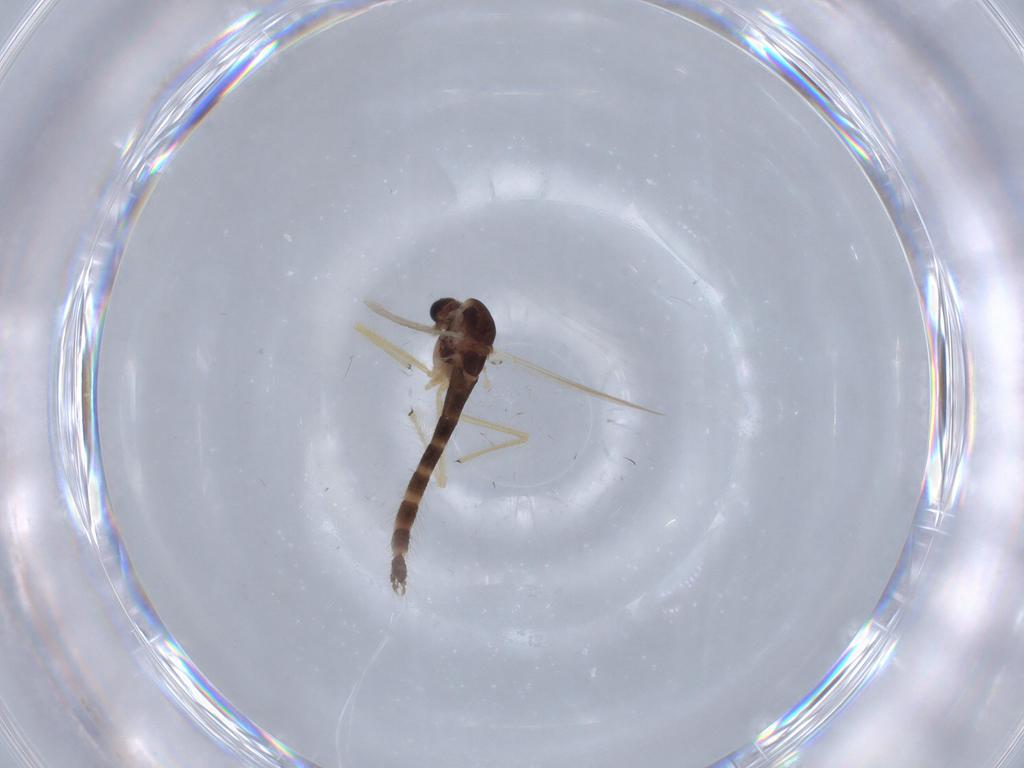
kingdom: Animalia
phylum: Arthropoda
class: Insecta
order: Diptera
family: Chironomidae
